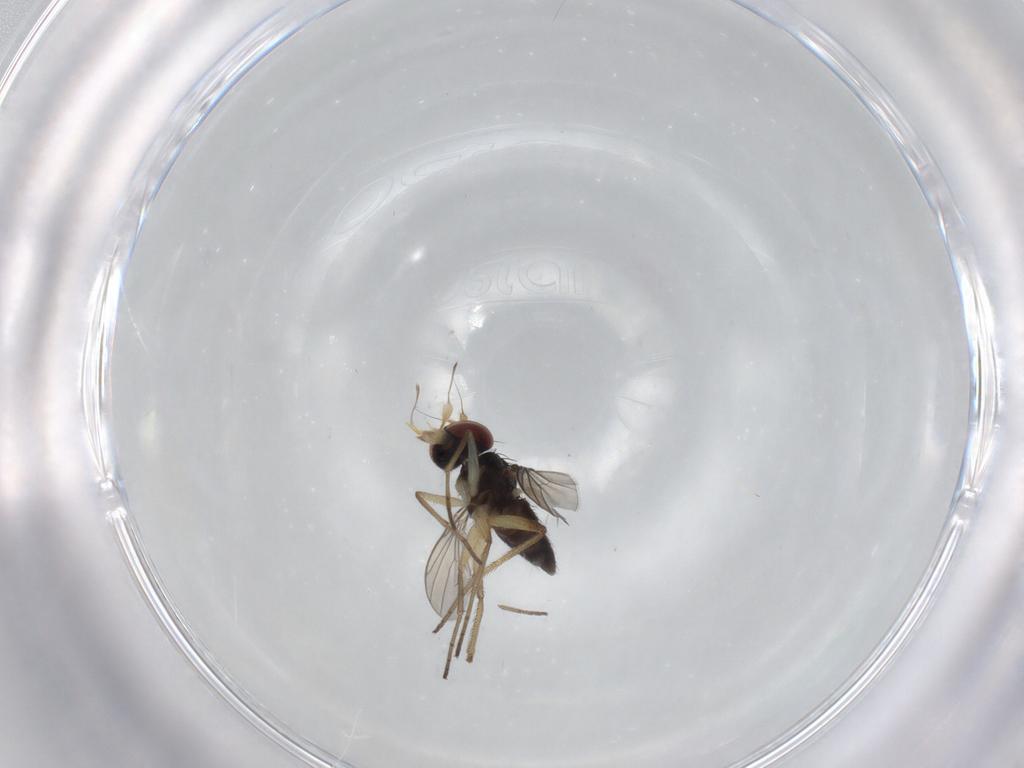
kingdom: Animalia
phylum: Arthropoda
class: Insecta
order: Diptera
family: Dolichopodidae
